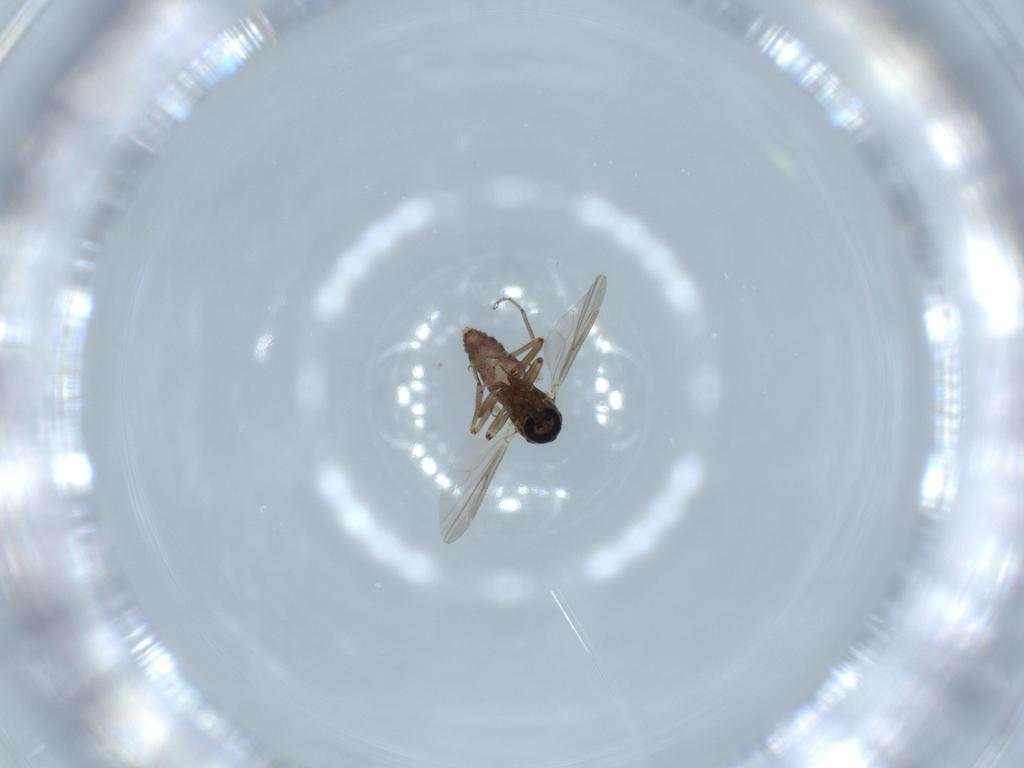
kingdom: Animalia
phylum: Arthropoda
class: Insecta
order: Diptera
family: Ceratopogonidae
